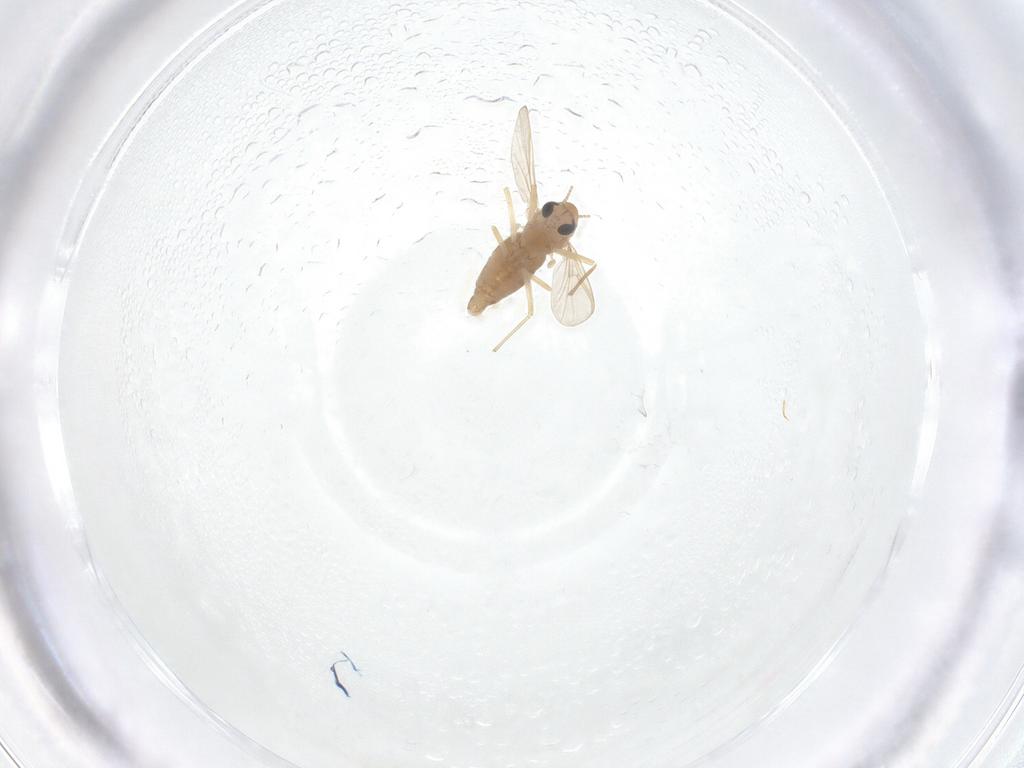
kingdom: Animalia
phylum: Arthropoda
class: Insecta
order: Diptera
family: Chironomidae
